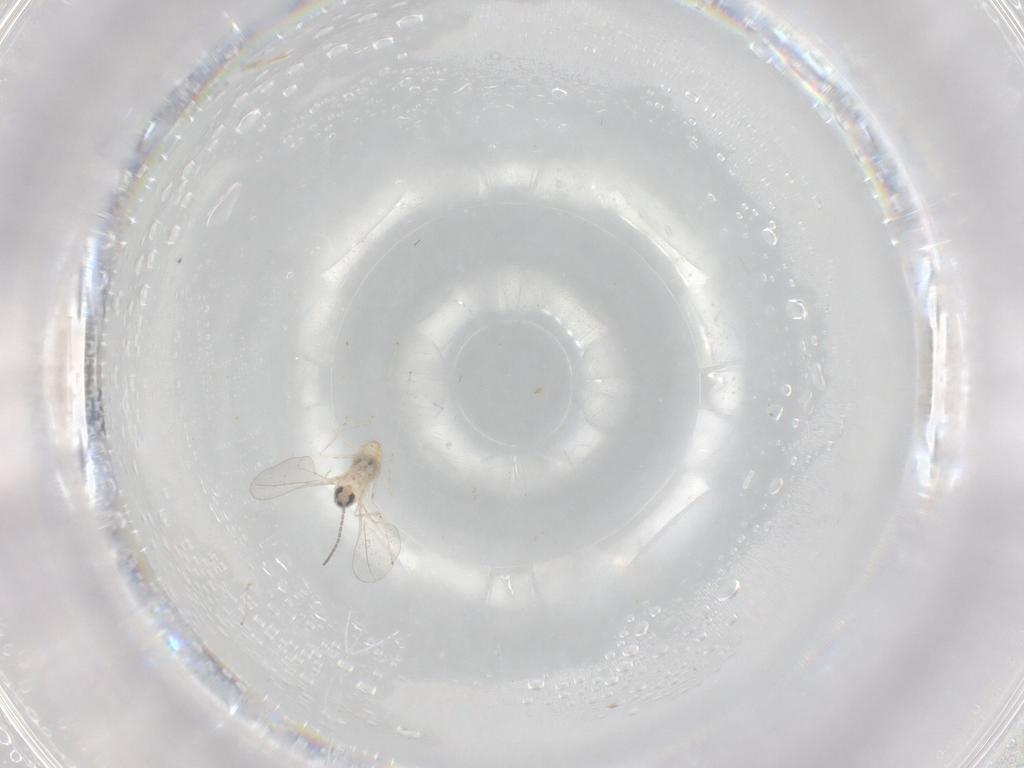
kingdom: Animalia
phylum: Arthropoda
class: Insecta
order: Diptera
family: Cecidomyiidae
